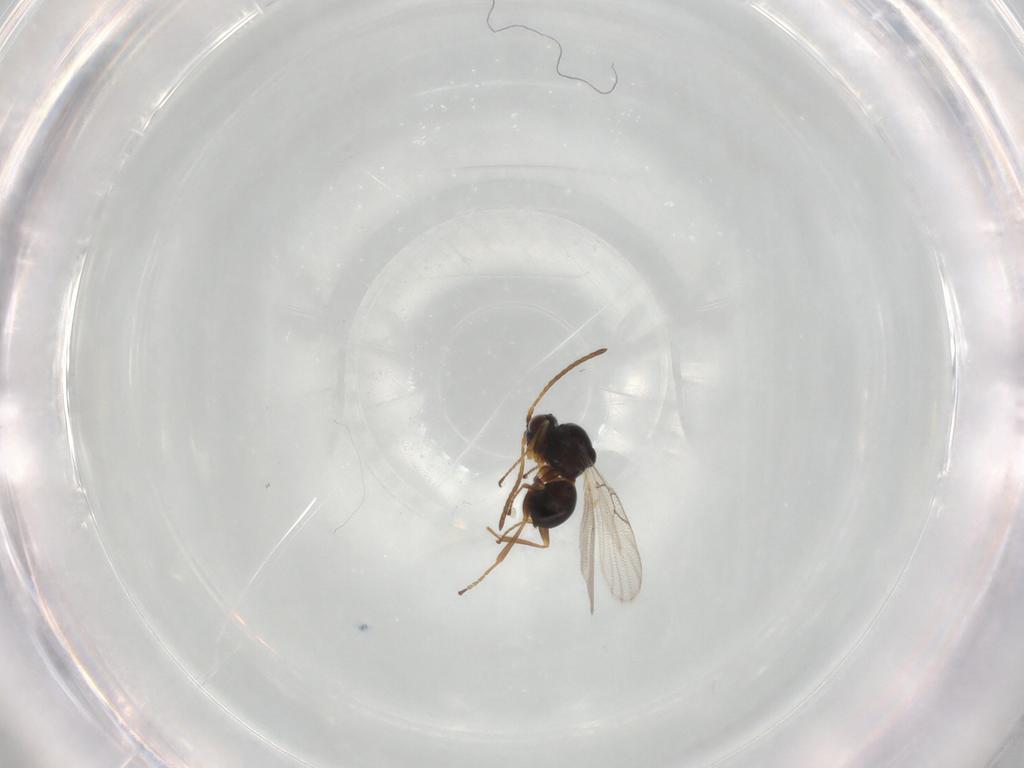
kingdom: Animalia
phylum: Arthropoda
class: Insecta
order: Hymenoptera
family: Figitidae
